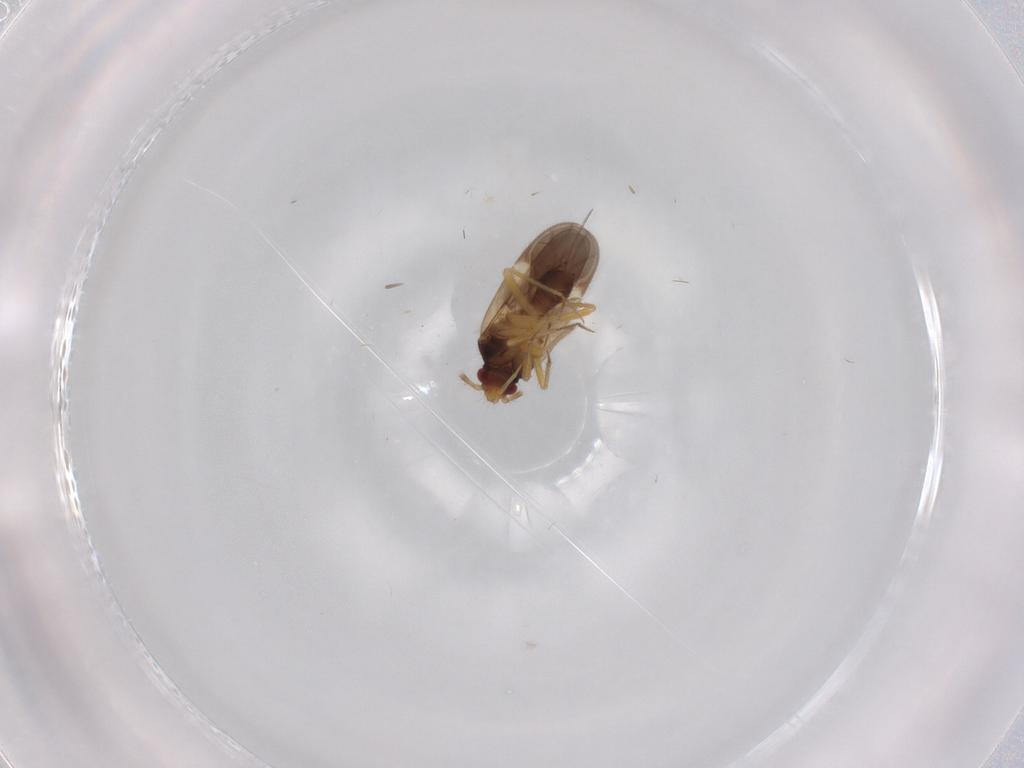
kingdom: Animalia
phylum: Arthropoda
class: Insecta
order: Hemiptera
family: Ceratocombidae
